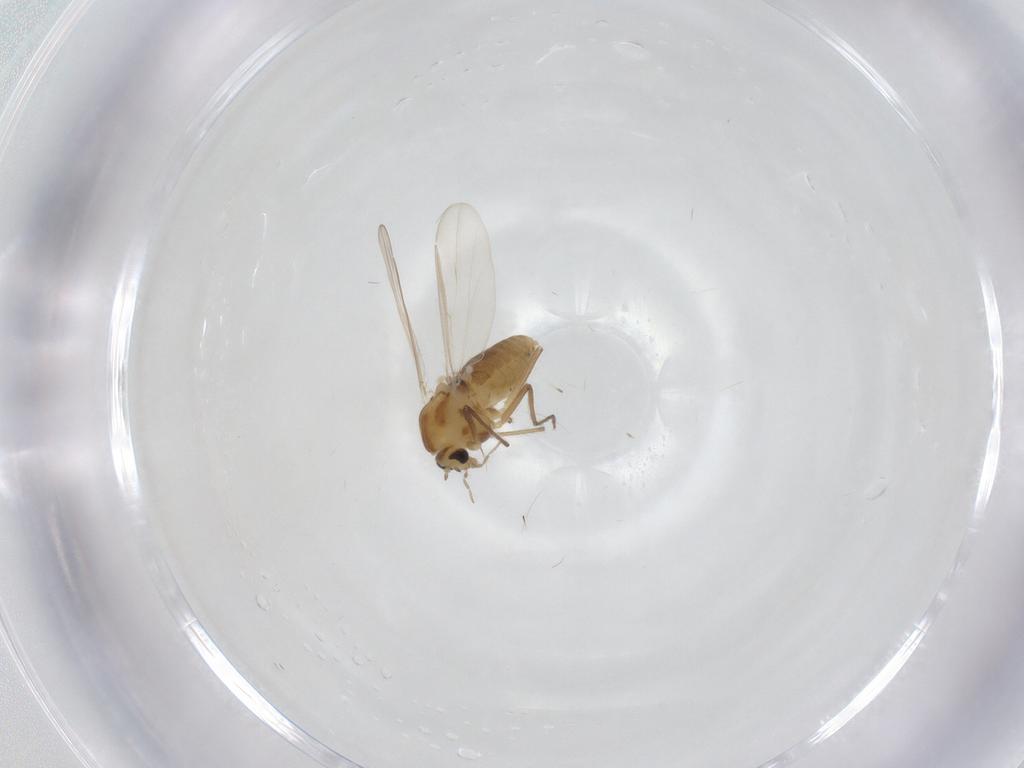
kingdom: Animalia
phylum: Arthropoda
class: Insecta
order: Diptera
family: Chironomidae
